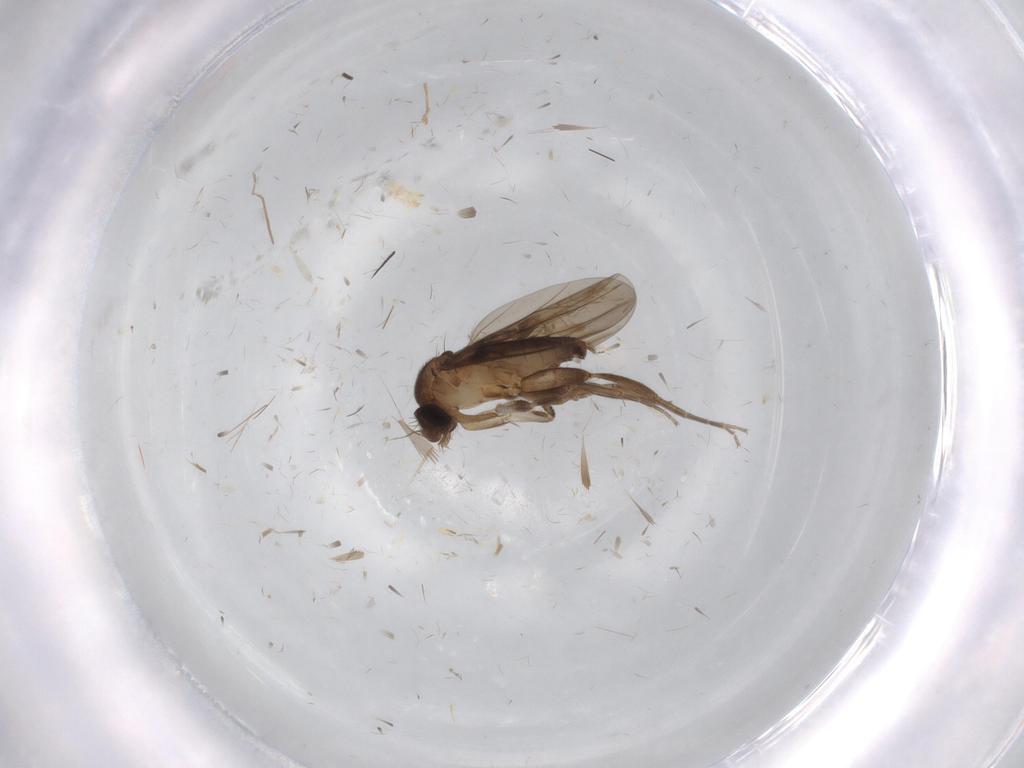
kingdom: Animalia
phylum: Arthropoda
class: Insecta
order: Diptera
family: Sciaridae
